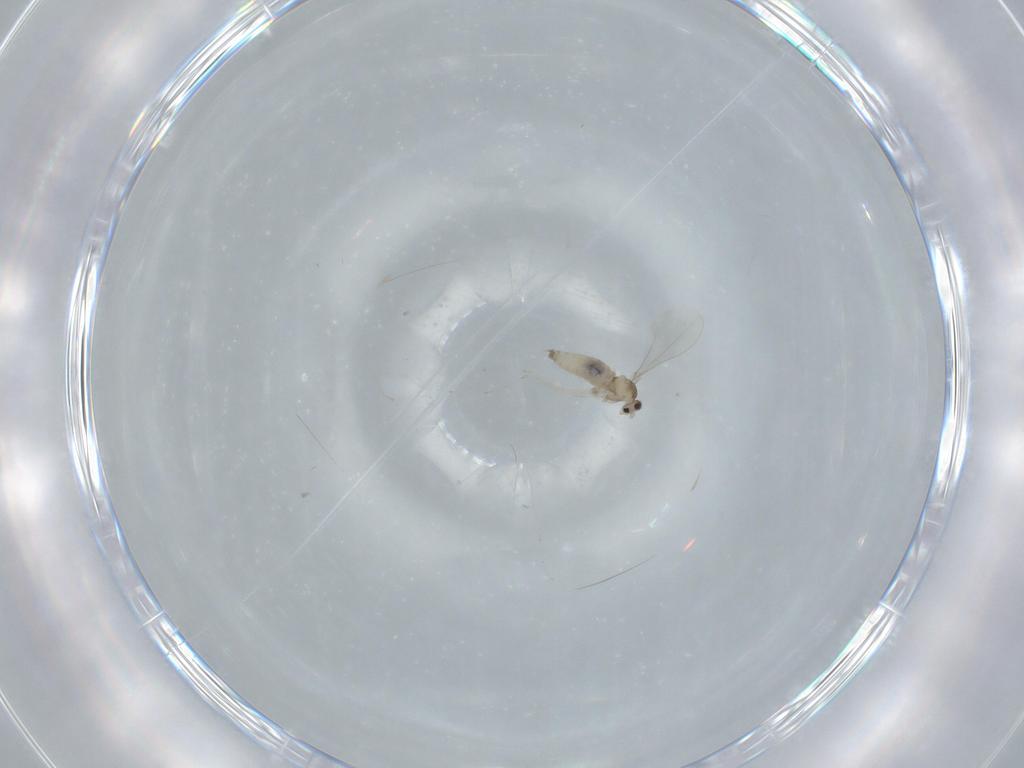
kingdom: Animalia
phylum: Arthropoda
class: Insecta
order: Diptera
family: Cecidomyiidae
